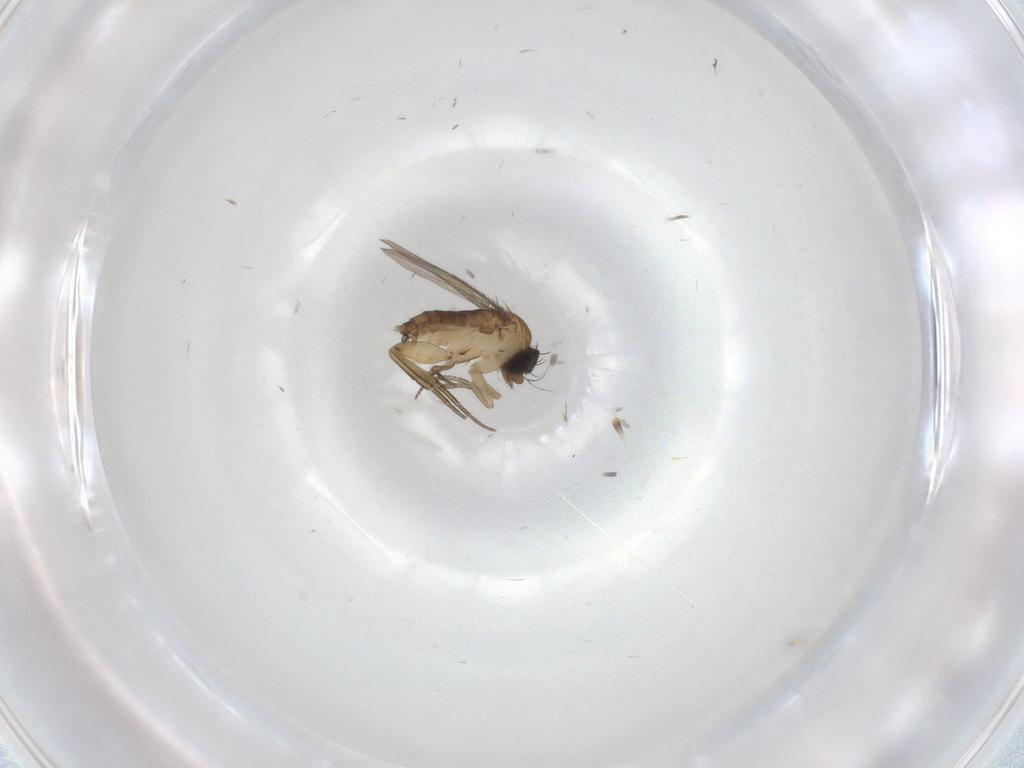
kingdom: Animalia
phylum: Arthropoda
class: Insecta
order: Diptera
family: Phoridae
